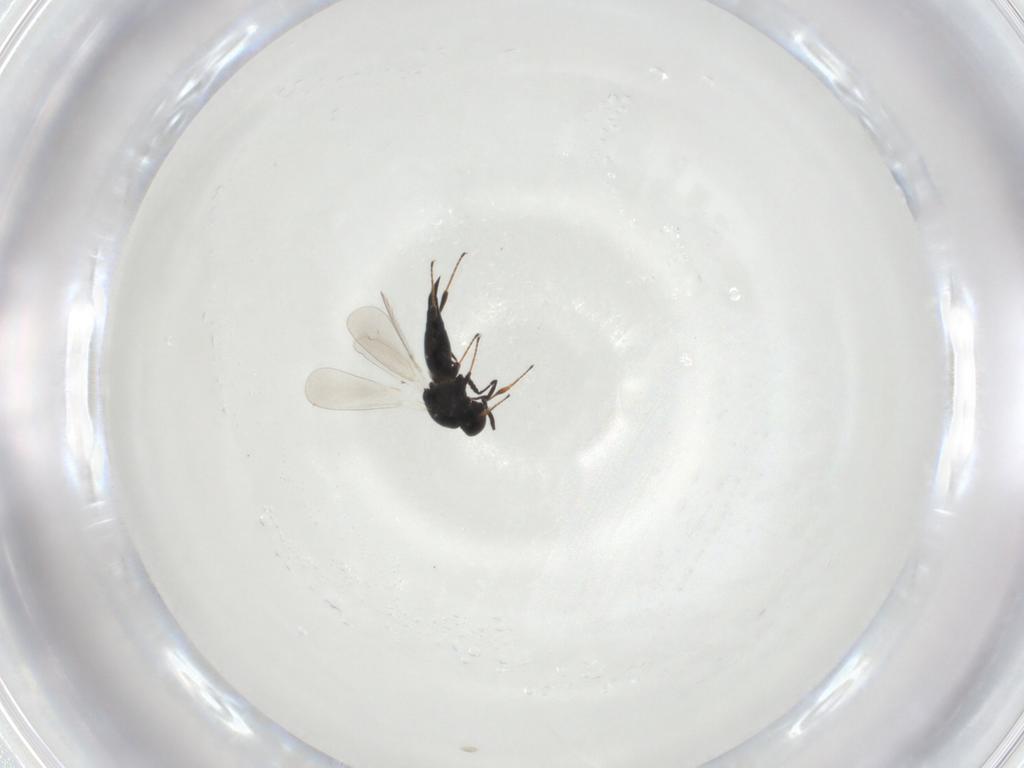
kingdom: Animalia
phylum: Arthropoda
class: Insecta
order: Hymenoptera
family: Platygastridae
